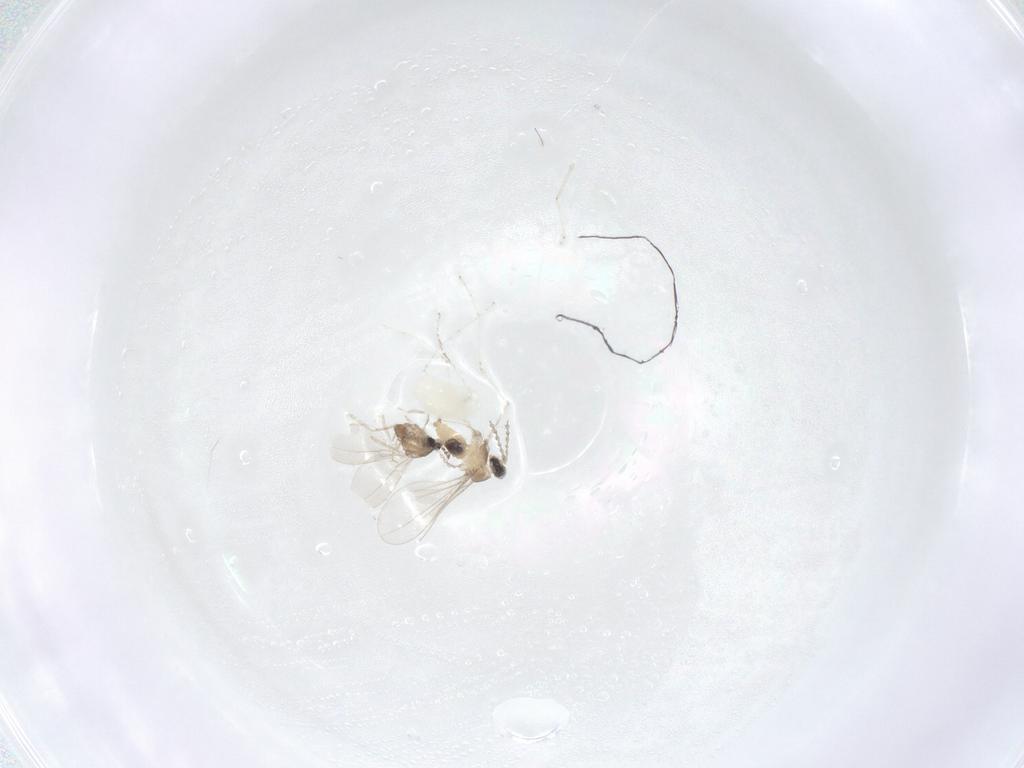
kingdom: Animalia
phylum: Arthropoda
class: Insecta
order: Diptera
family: Cecidomyiidae
